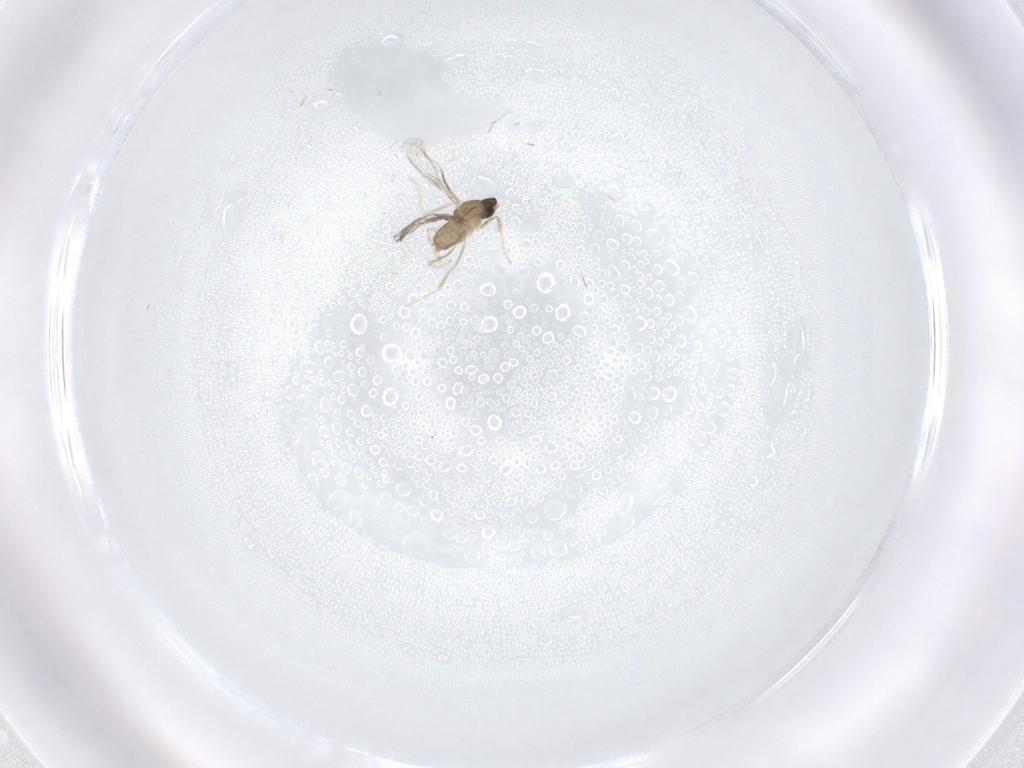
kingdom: Animalia
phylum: Arthropoda
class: Insecta
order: Diptera
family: Cecidomyiidae
